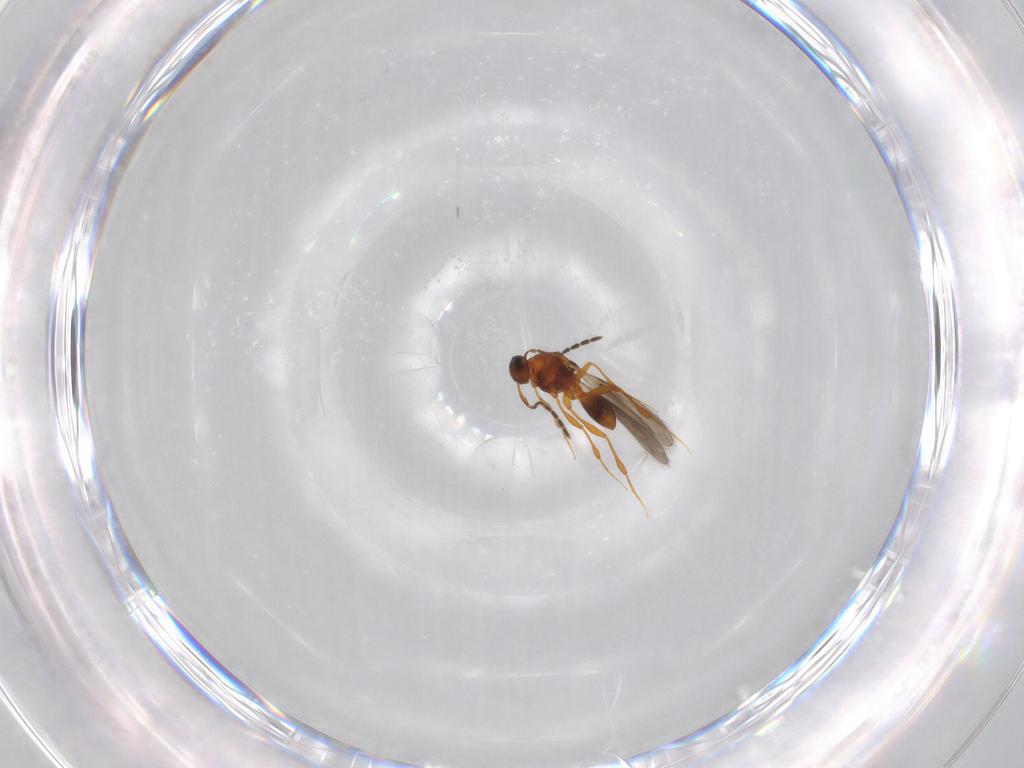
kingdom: Animalia
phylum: Arthropoda
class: Insecta
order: Hymenoptera
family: Platygastridae
